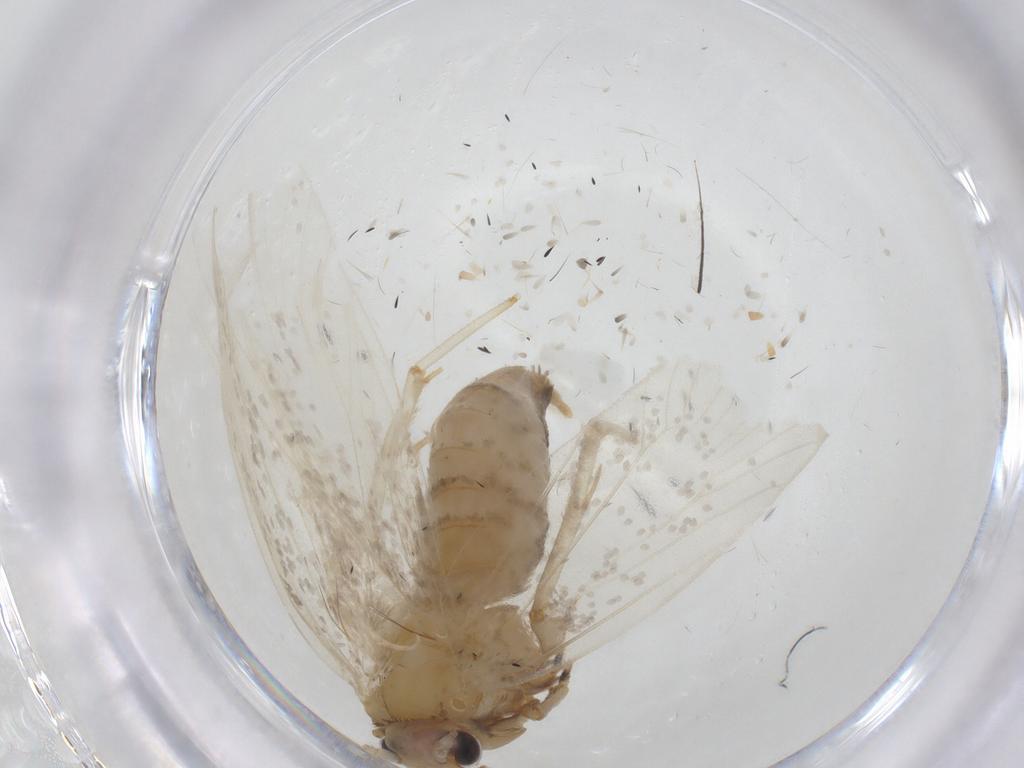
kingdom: Animalia
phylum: Arthropoda
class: Insecta
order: Lepidoptera
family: Tineidae
